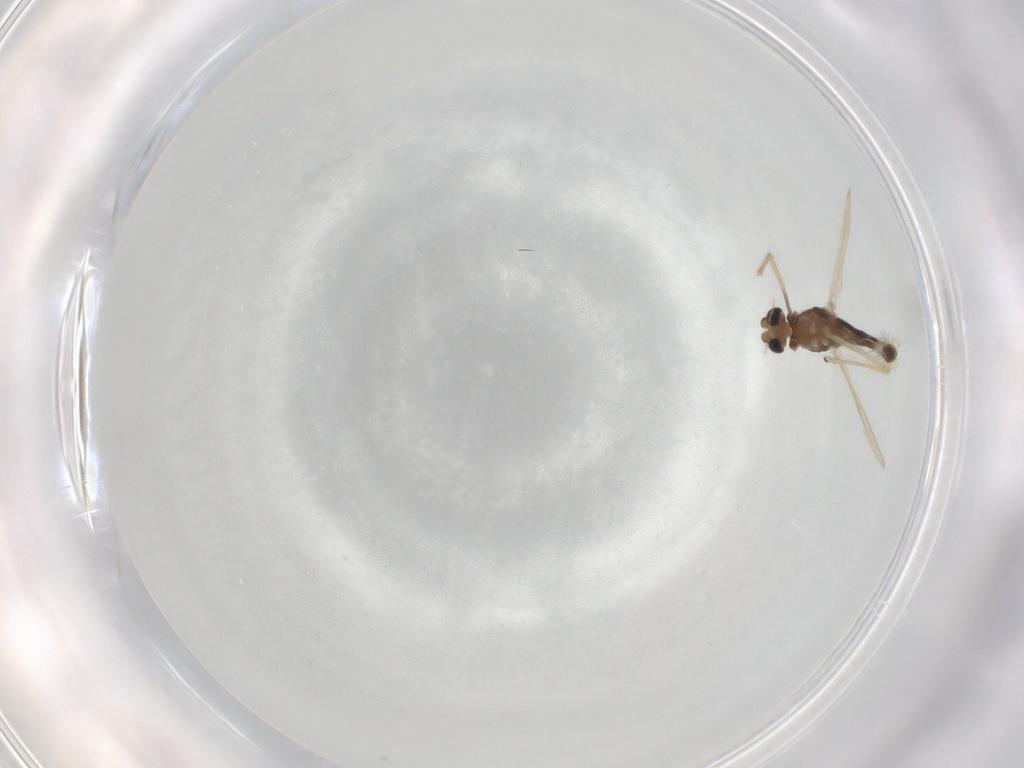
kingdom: Animalia
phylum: Arthropoda
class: Insecta
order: Diptera
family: Chironomidae
